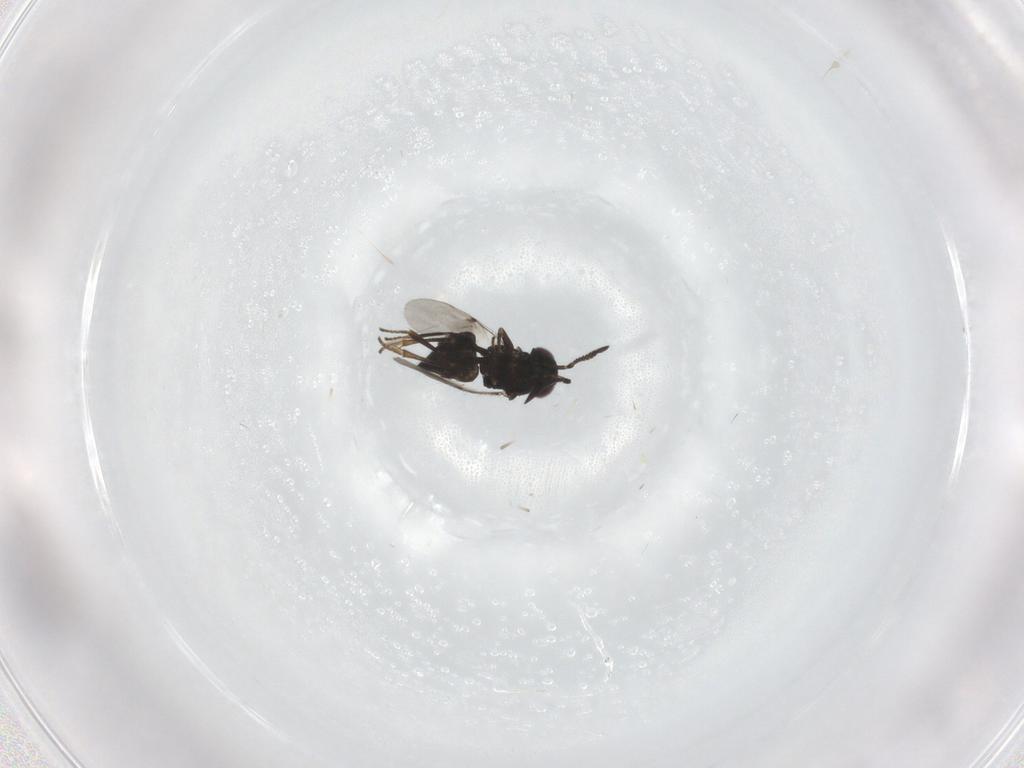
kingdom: Animalia
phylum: Arthropoda
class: Insecta
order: Hymenoptera
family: Encyrtidae
